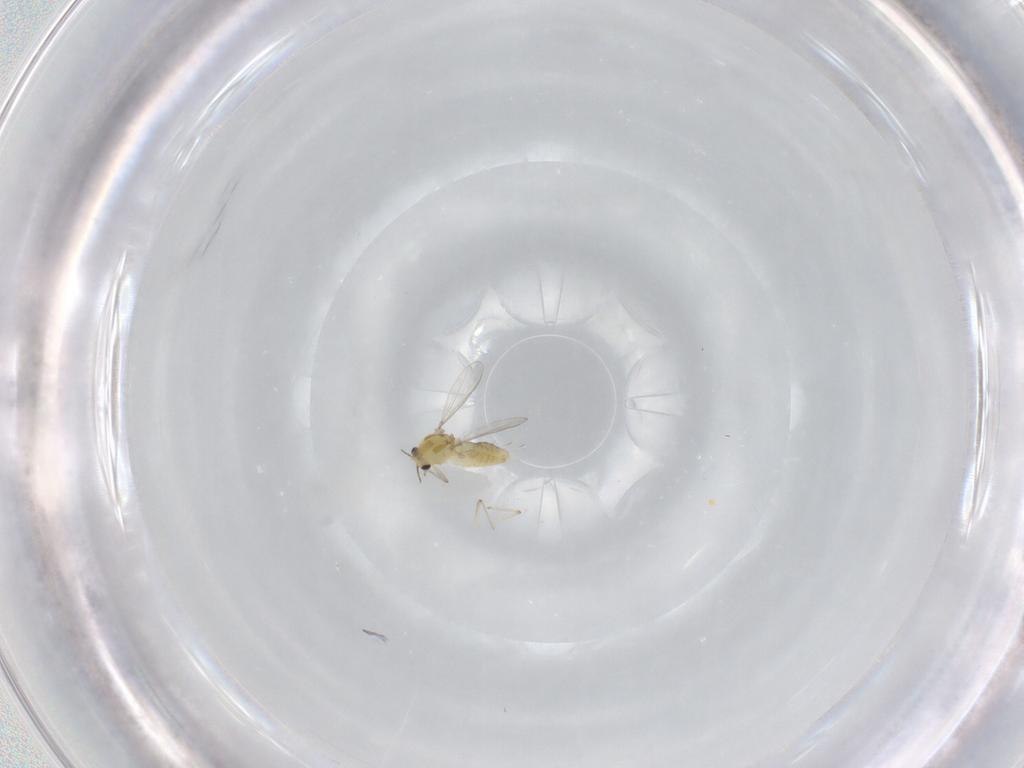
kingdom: Animalia
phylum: Arthropoda
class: Insecta
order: Diptera
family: Chironomidae
